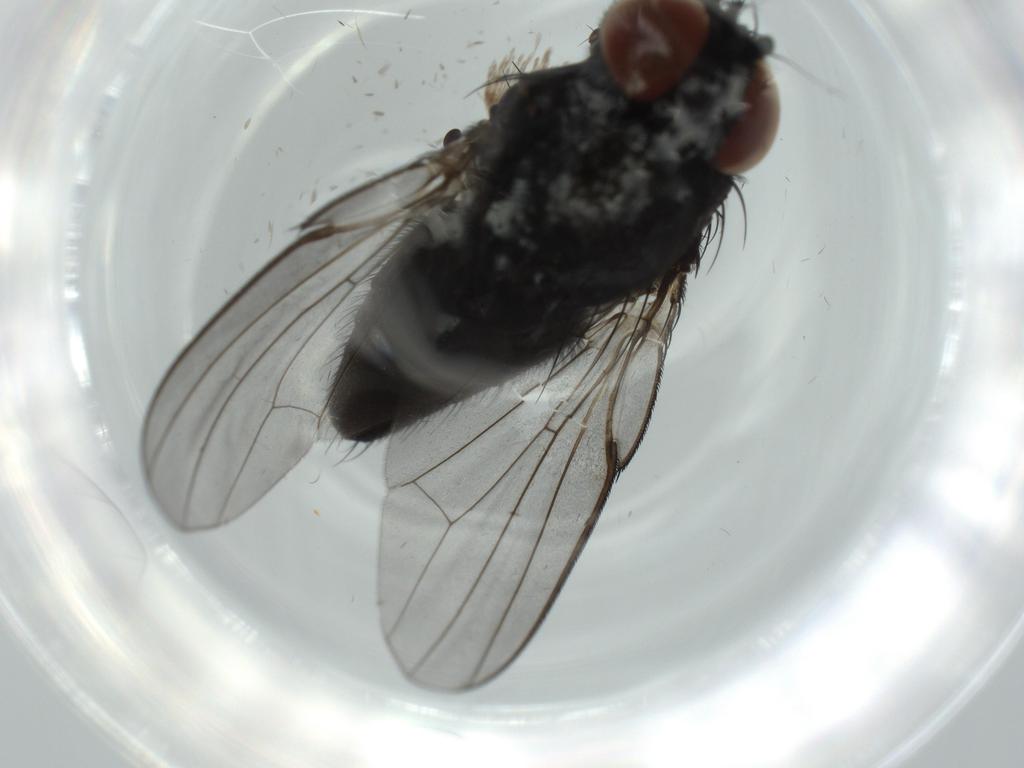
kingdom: Animalia
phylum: Arthropoda
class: Insecta
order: Diptera
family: Milichiidae
